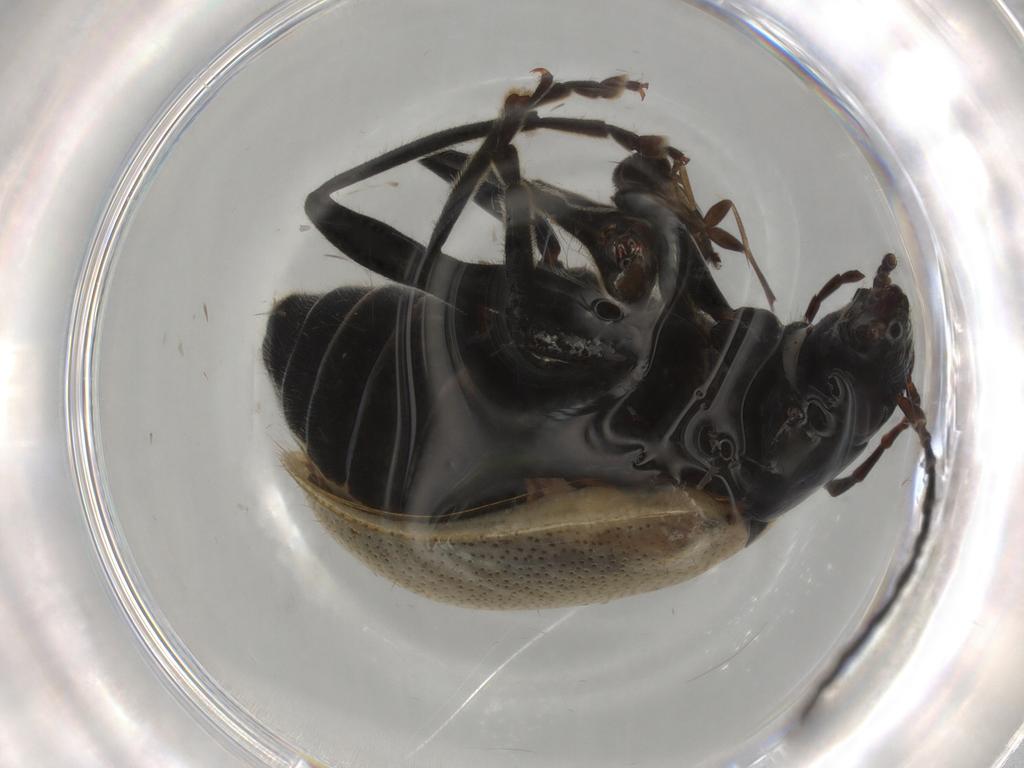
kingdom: Animalia
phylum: Arthropoda
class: Insecta
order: Coleoptera
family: Chrysomelidae
